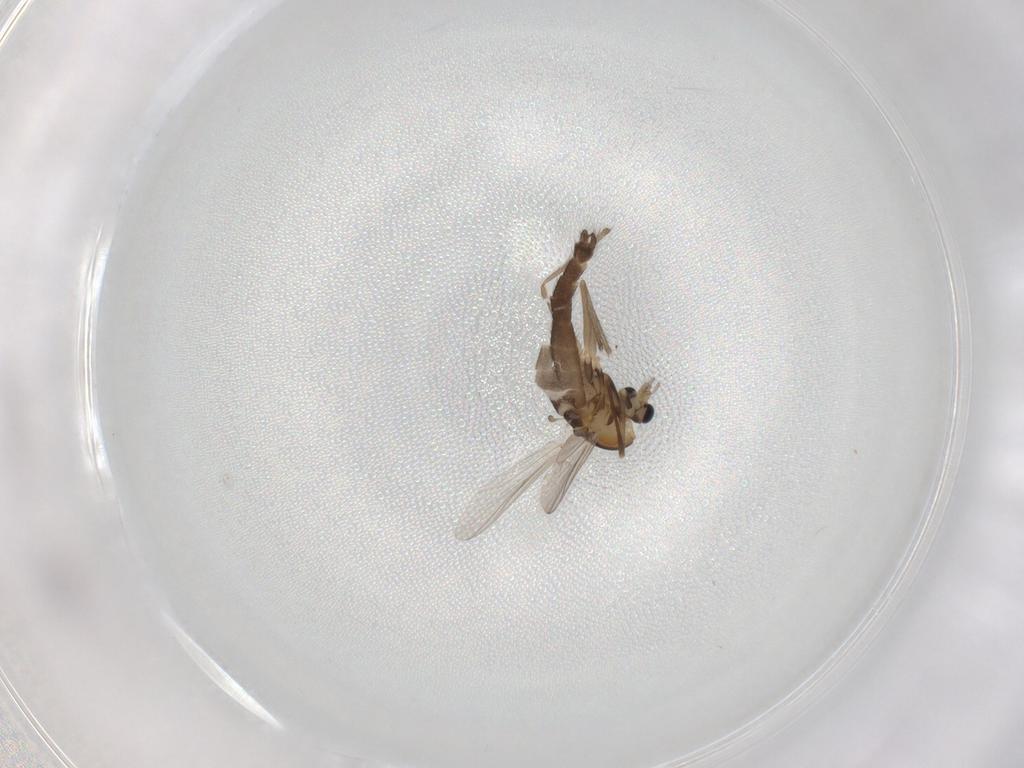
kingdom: Animalia
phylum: Arthropoda
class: Insecta
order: Diptera
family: Chironomidae
